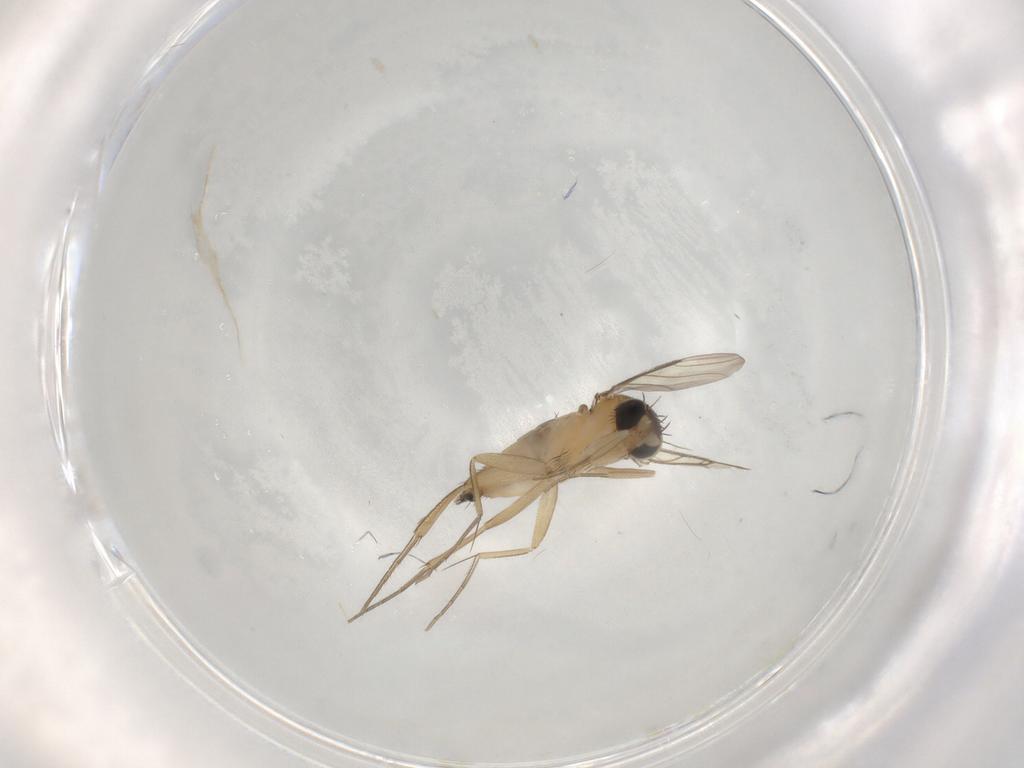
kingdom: Animalia
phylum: Arthropoda
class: Insecta
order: Diptera
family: Phoridae
